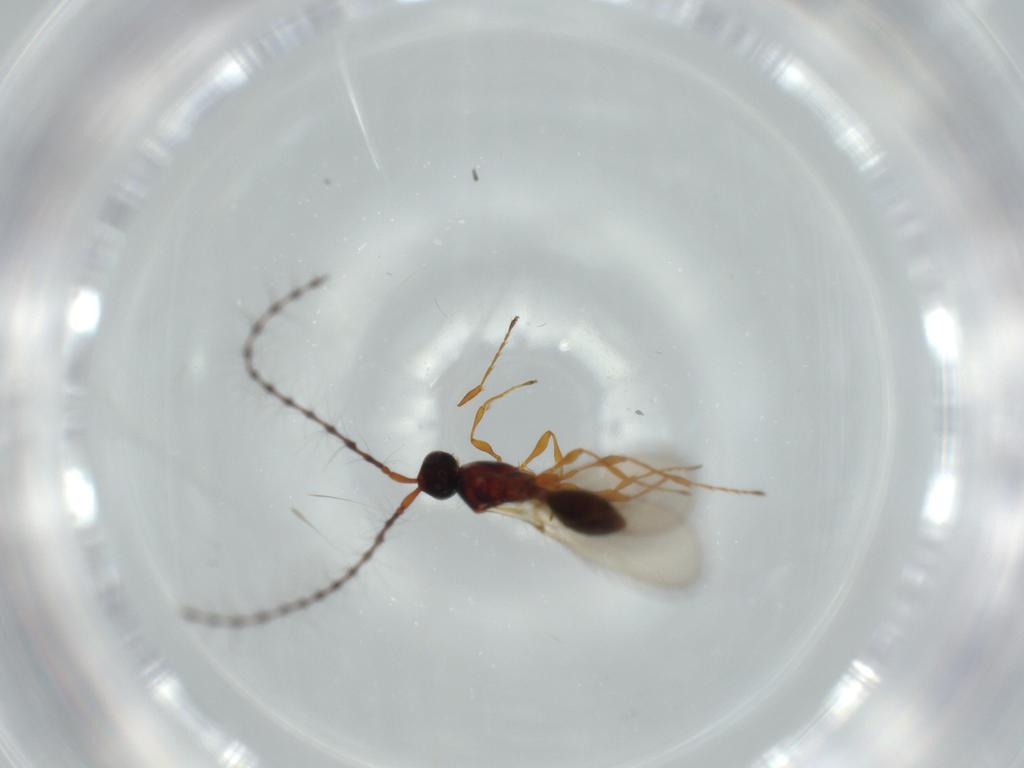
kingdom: Animalia
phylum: Arthropoda
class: Insecta
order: Hymenoptera
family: Diapriidae
